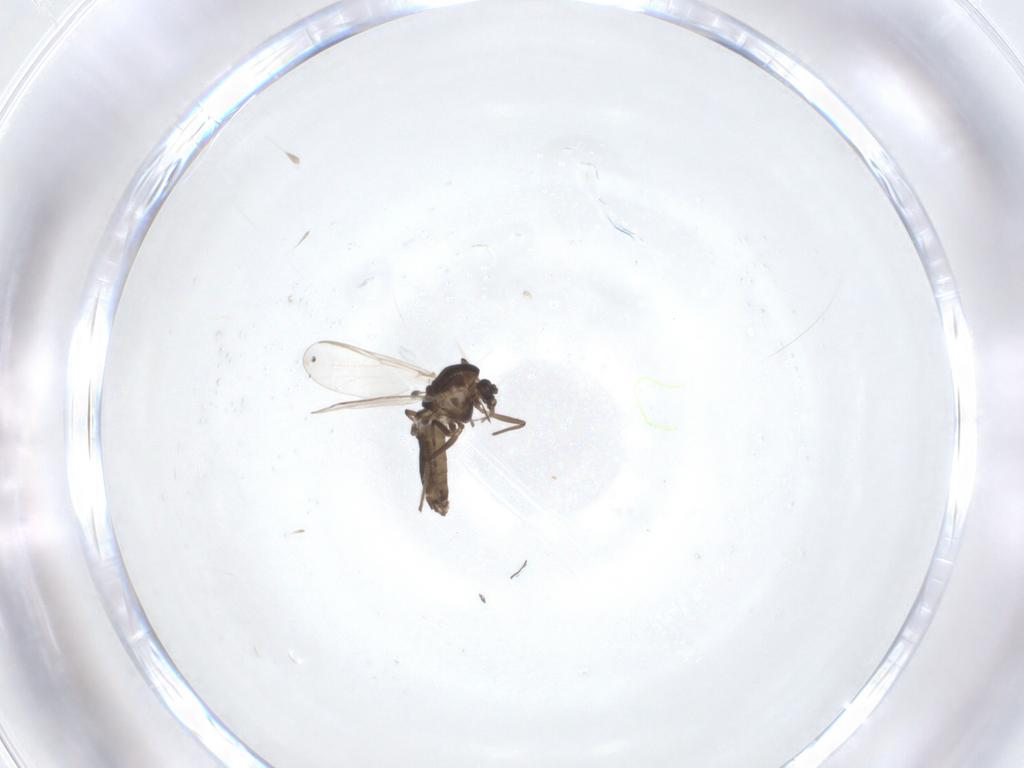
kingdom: Animalia
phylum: Arthropoda
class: Insecta
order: Diptera
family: Chironomidae
